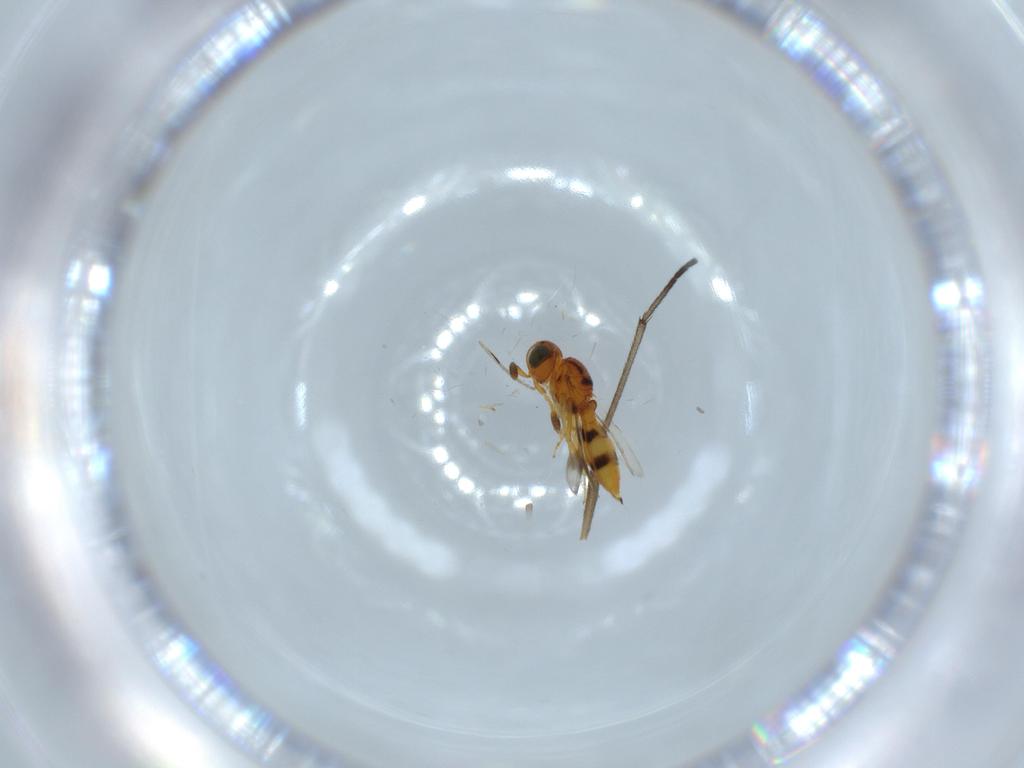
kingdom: Animalia
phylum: Arthropoda
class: Insecta
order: Hymenoptera
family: Scelionidae
